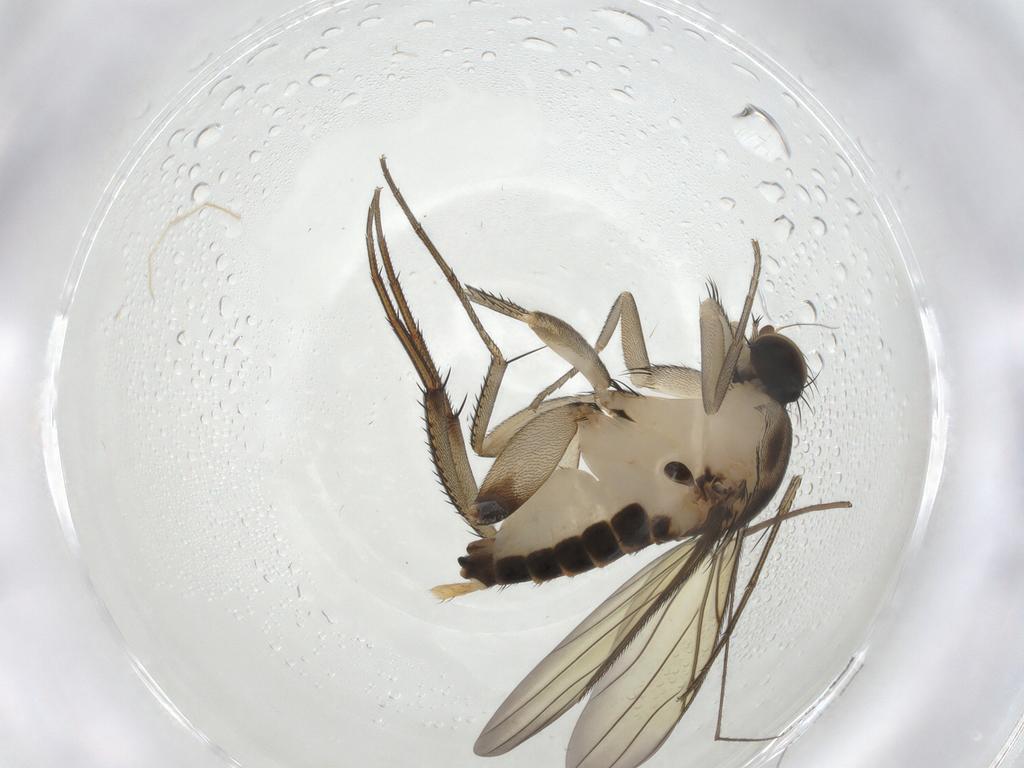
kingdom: Animalia
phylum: Arthropoda
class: Insecta
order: Diptera
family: Phoridae
